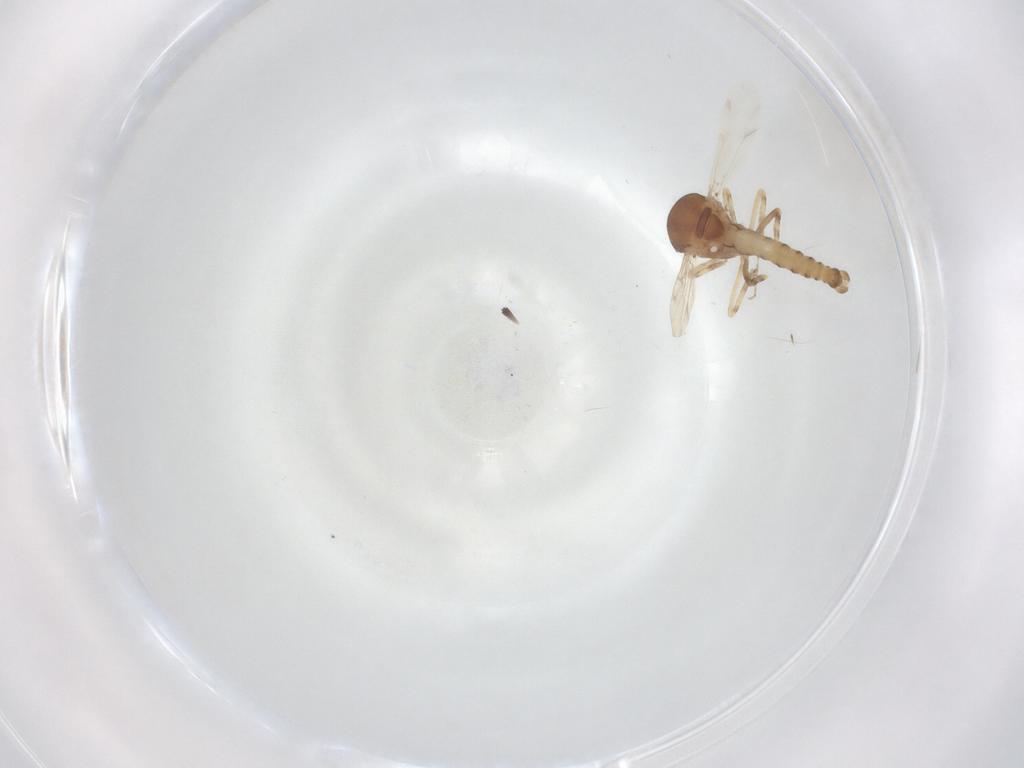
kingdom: Animalia
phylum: Arthropoda
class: Insecta
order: Diptera
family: Ceratopogonidae
